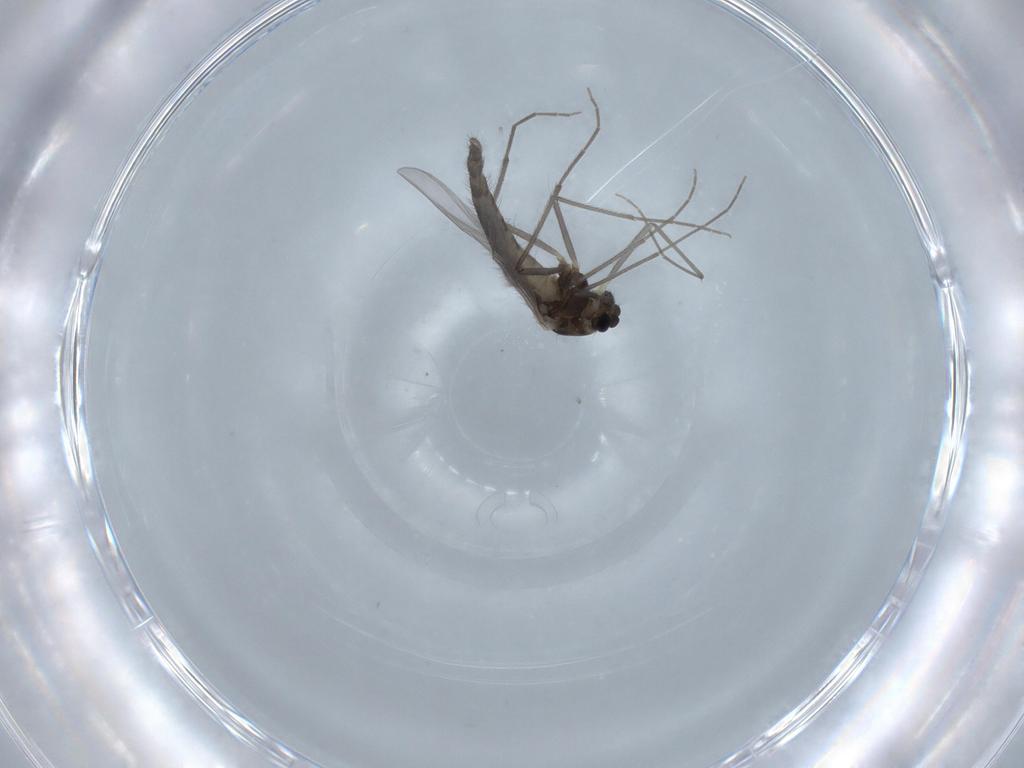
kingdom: Animalia
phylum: Arthropoda
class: Insecta
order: Diptera
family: Chironomidae
